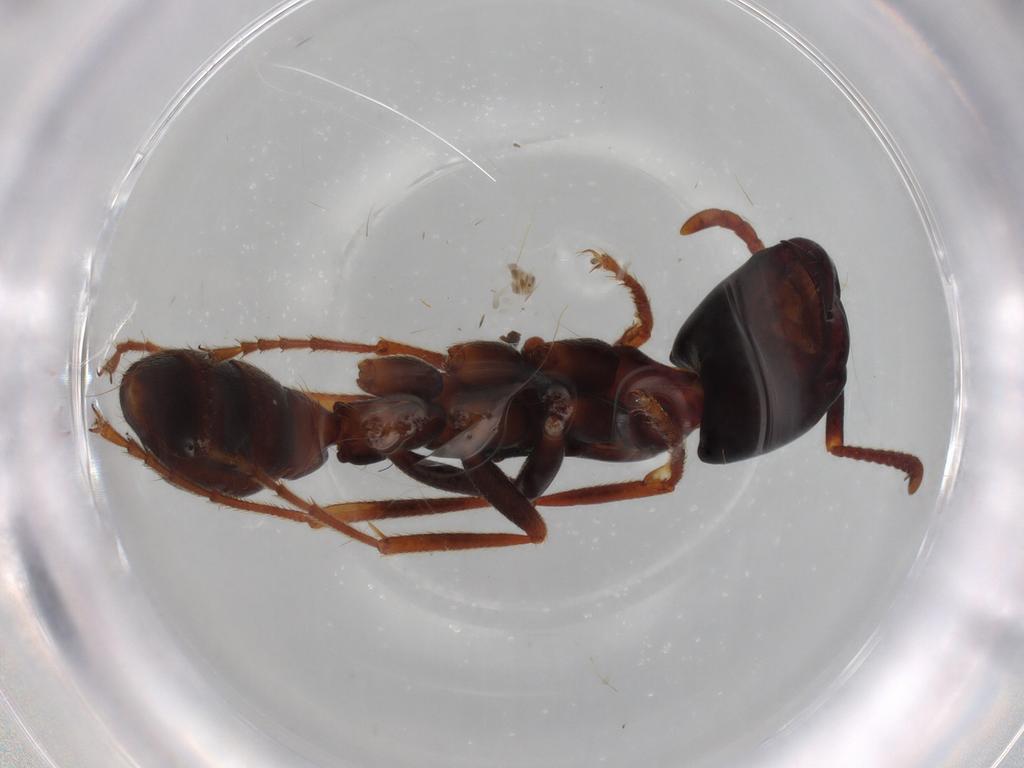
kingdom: Animalia
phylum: Arthropoda
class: Insecta
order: Hymenoptera
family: Formicidae
